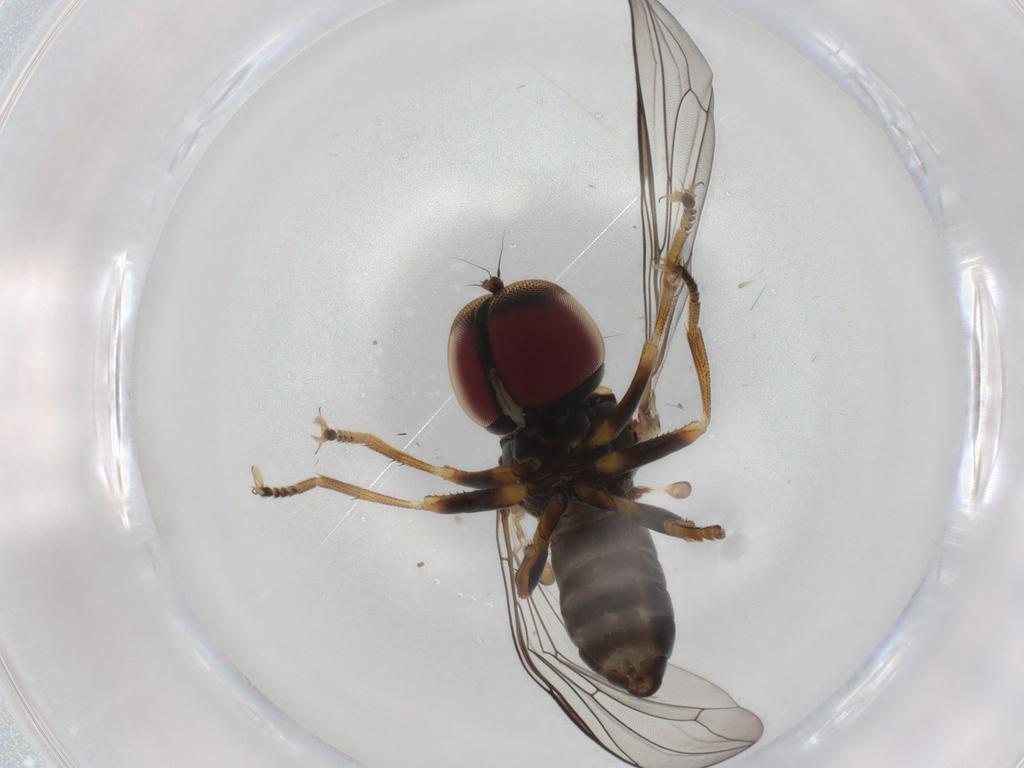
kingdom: Animalia
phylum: Arthropoda
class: Insecta
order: Diptera
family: Pipunculidae
